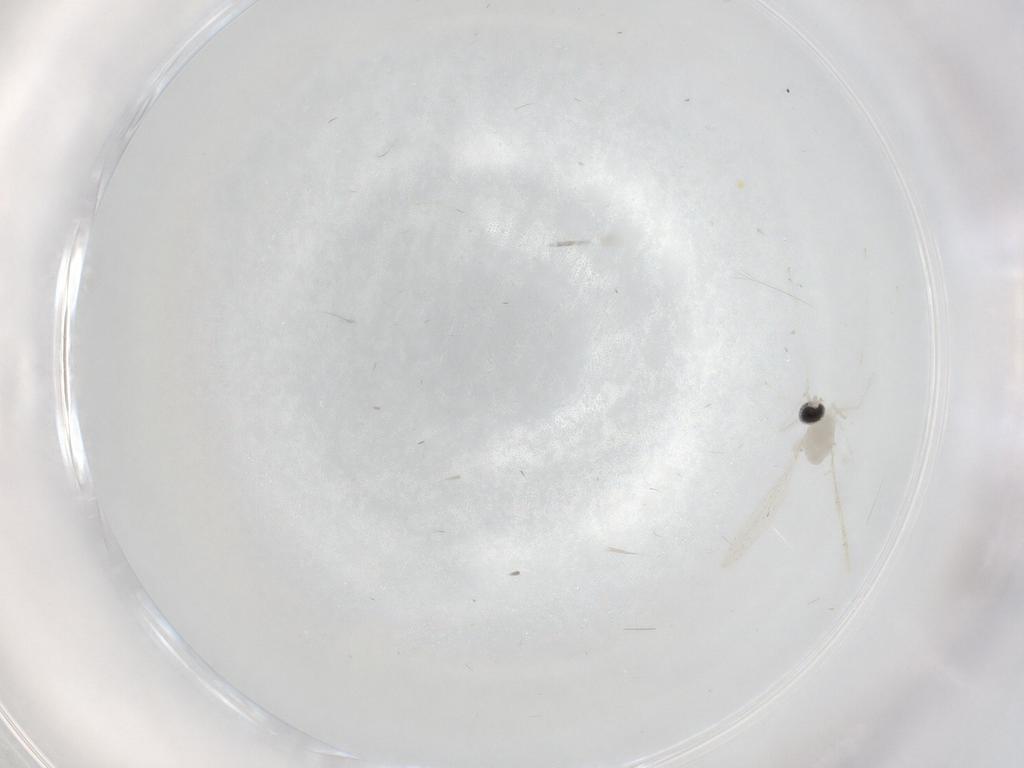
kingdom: Animalia
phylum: Arthropoda
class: Insecta
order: Diptera
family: Cecidomyiidae
